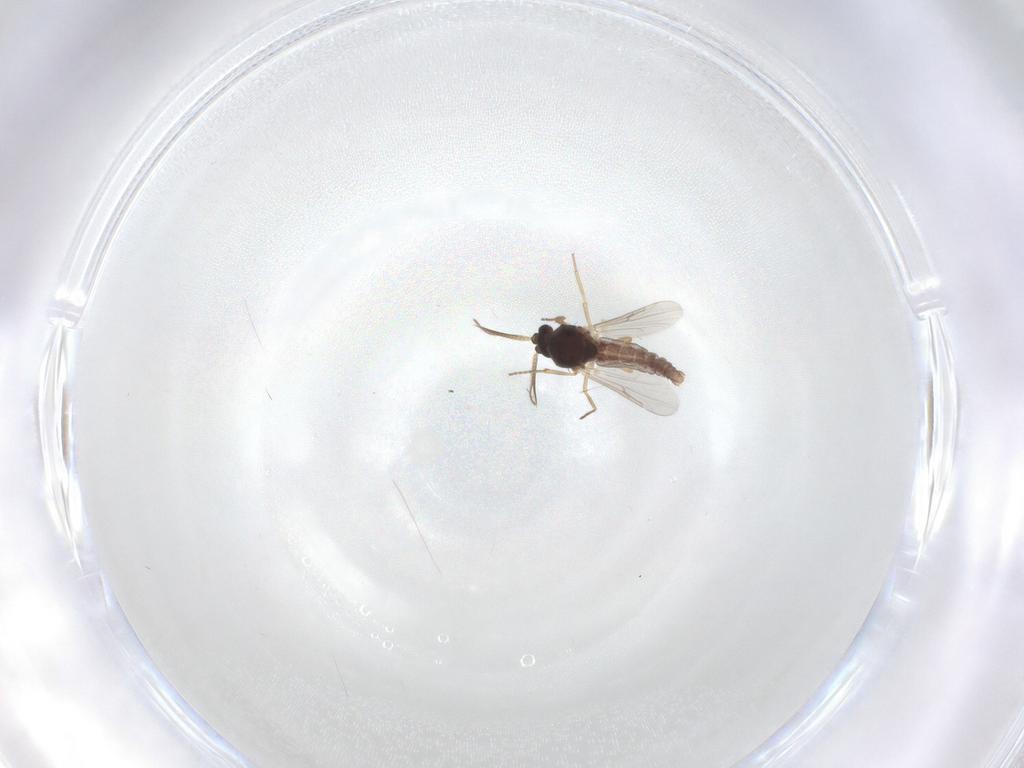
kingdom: Animalia
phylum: Arthropoda
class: Insecta
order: Diptera
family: Ceratopogonidae
